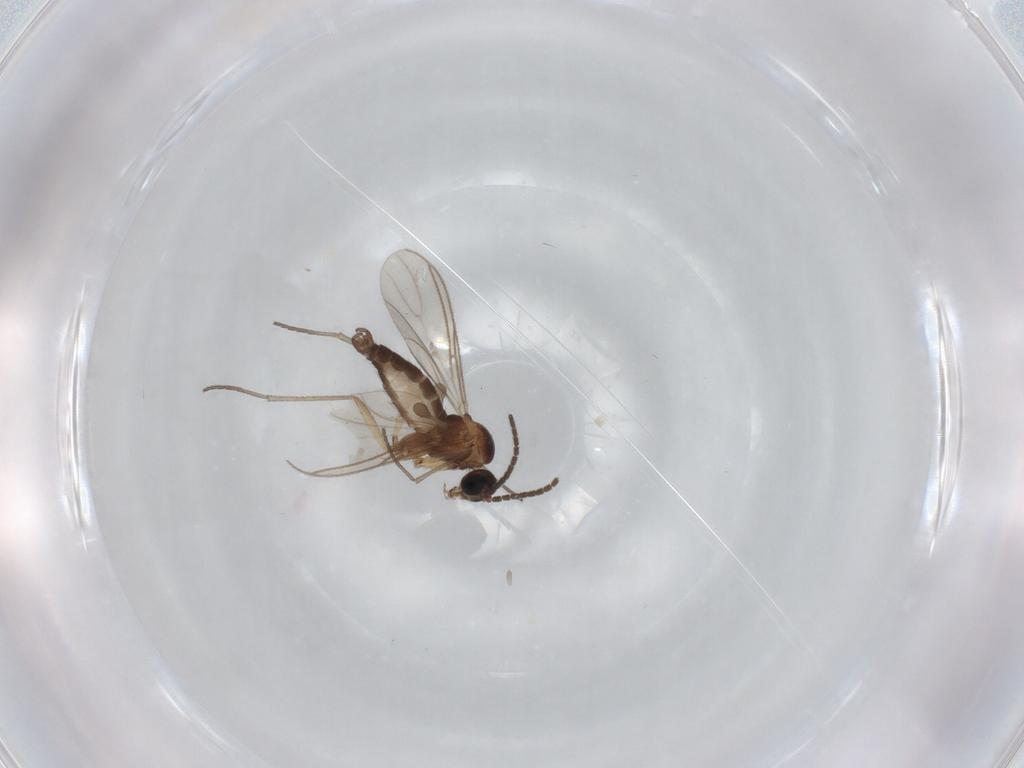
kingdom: Animalia
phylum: Arthropoda
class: Insecta
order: Diptera
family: Sciaridae
